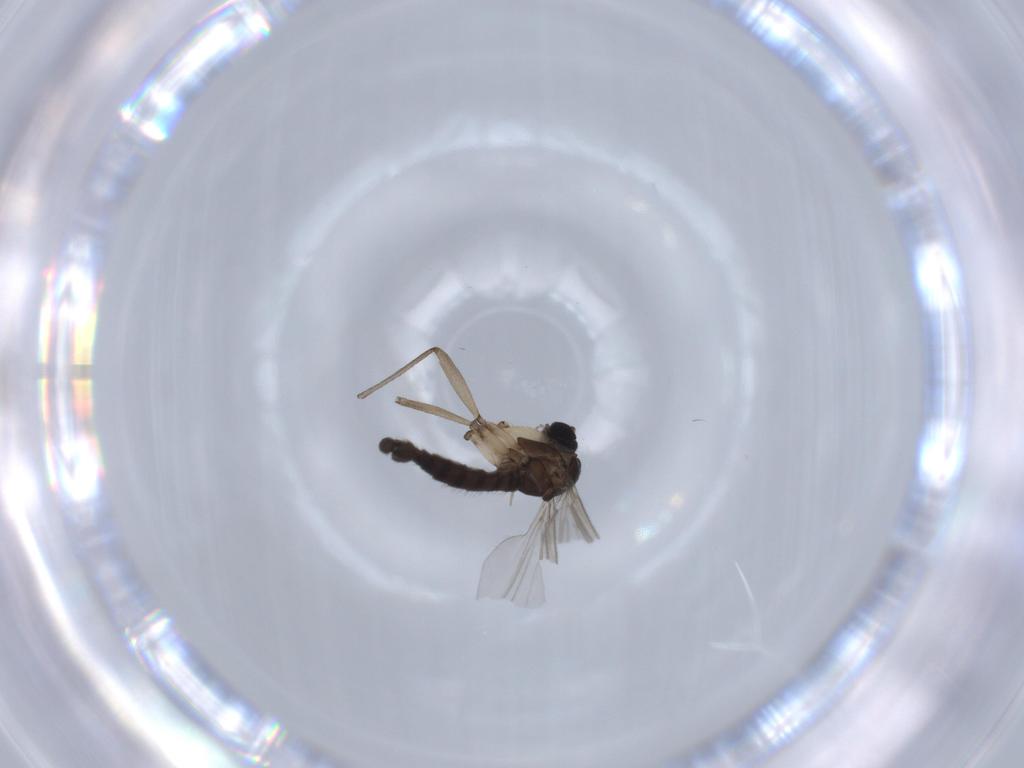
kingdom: Animalia
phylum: Arthropoda
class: Insecta
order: Diptera
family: Sciaridae
